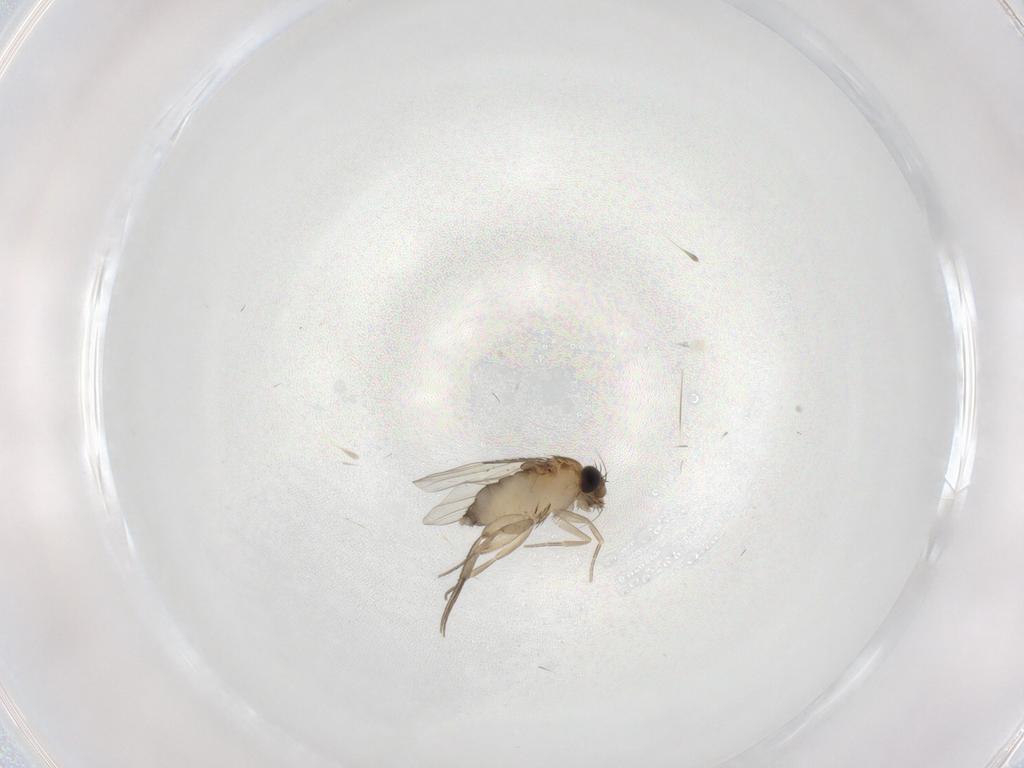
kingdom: Animalia
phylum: Arthropoda
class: Insecta
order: Diptera
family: Phoridae
